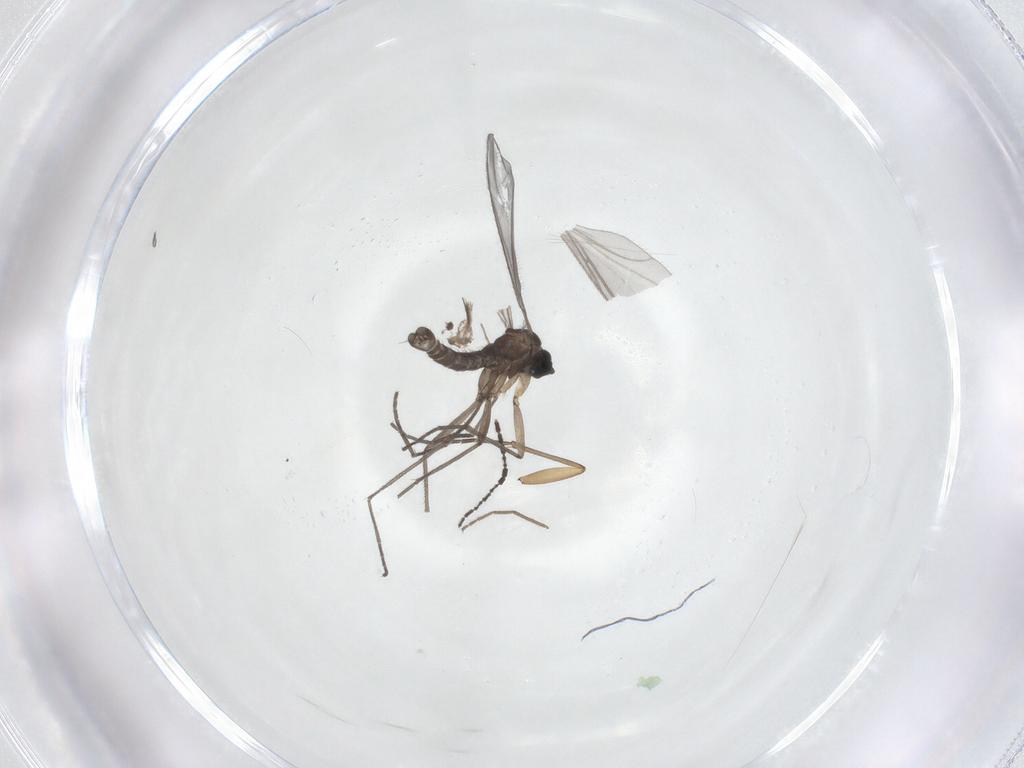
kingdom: Animalia
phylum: Arthropoda
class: Insecta
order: Diptera
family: Sciaridae
